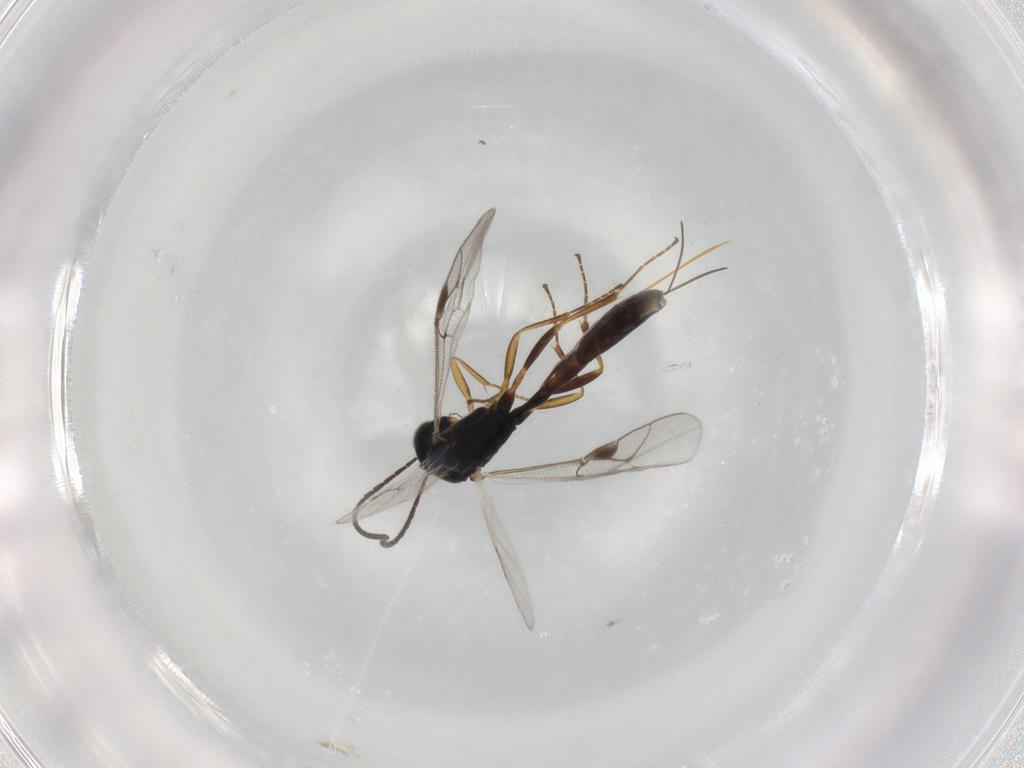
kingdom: Animalia
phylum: Arthropoda
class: Insecta
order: Hymenoptera
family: Ichneumonidae
